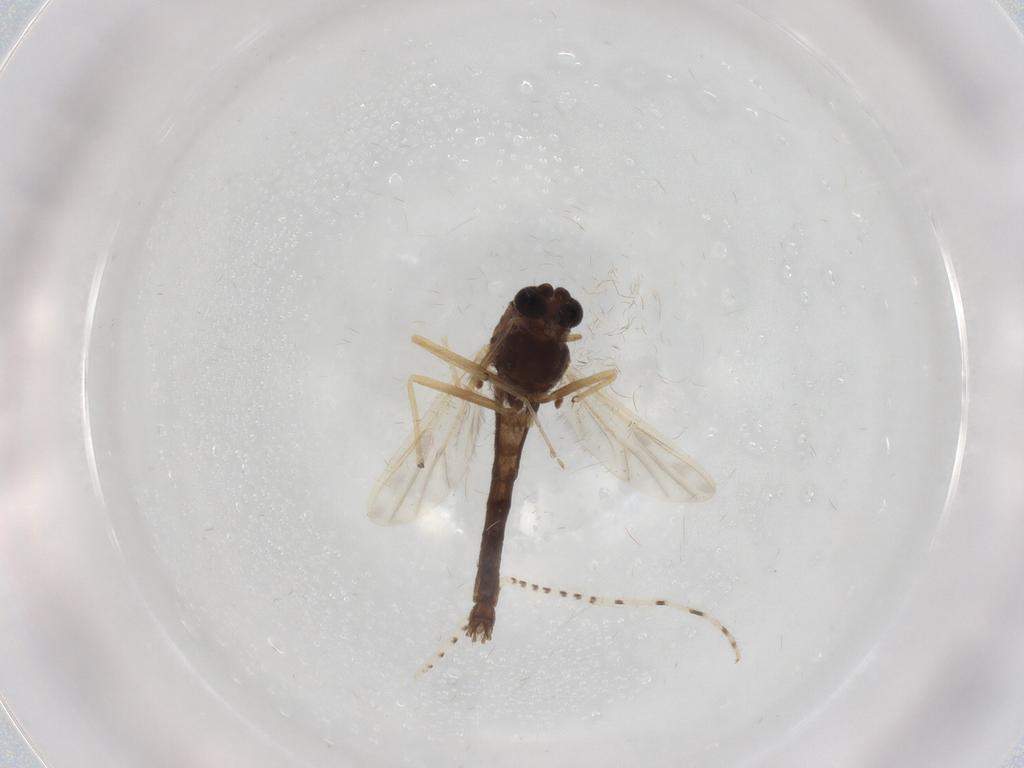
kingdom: Animalia
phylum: Arthropoda
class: Insecta
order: Diptera
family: Chironomidae
